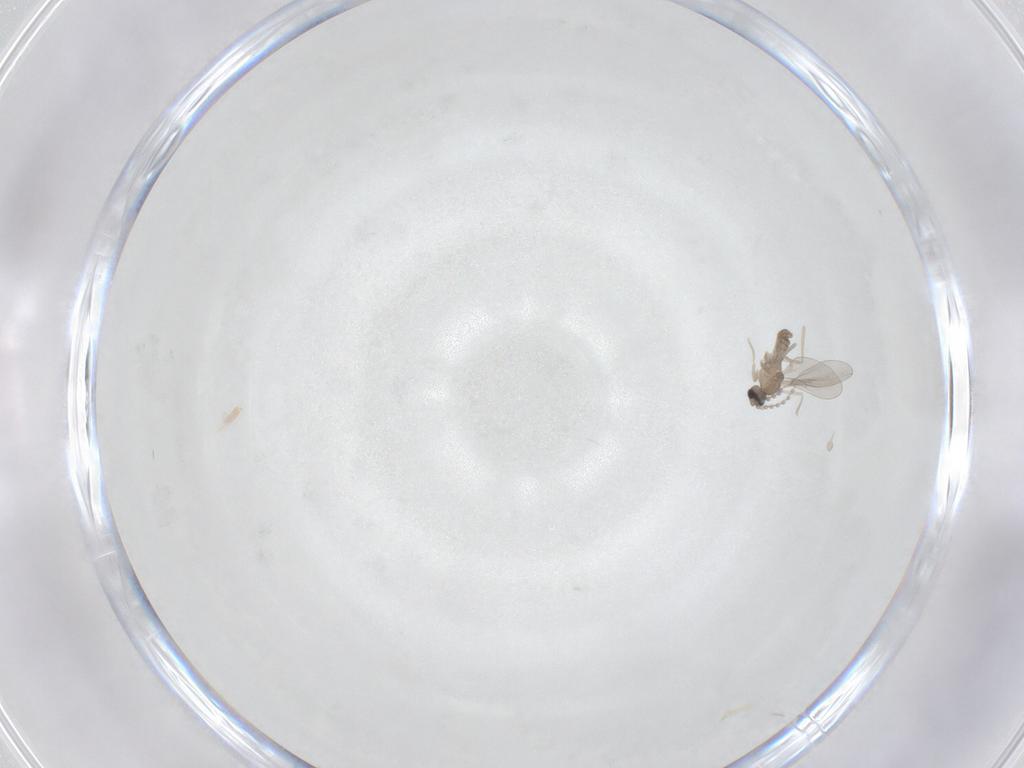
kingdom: Animalia
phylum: Arthropoda
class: Insecta
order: Diptera
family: Cecidomyiidae
